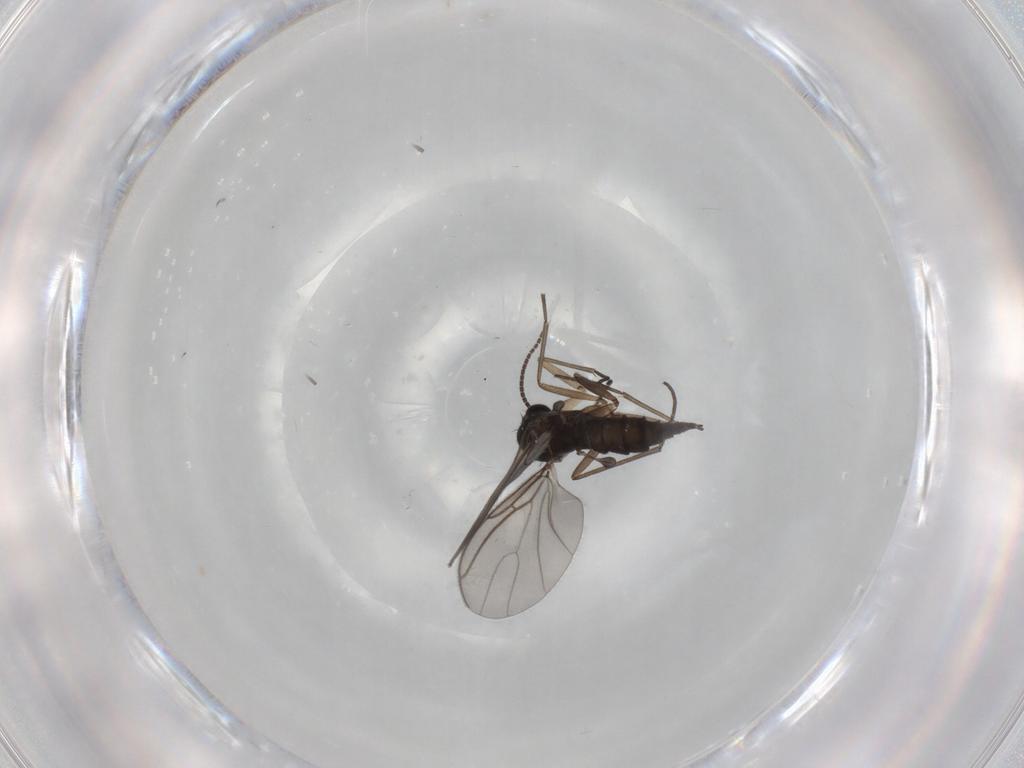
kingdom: Animalia
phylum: Arthropoda
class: Insecta
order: Diptera
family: Sciaridae
